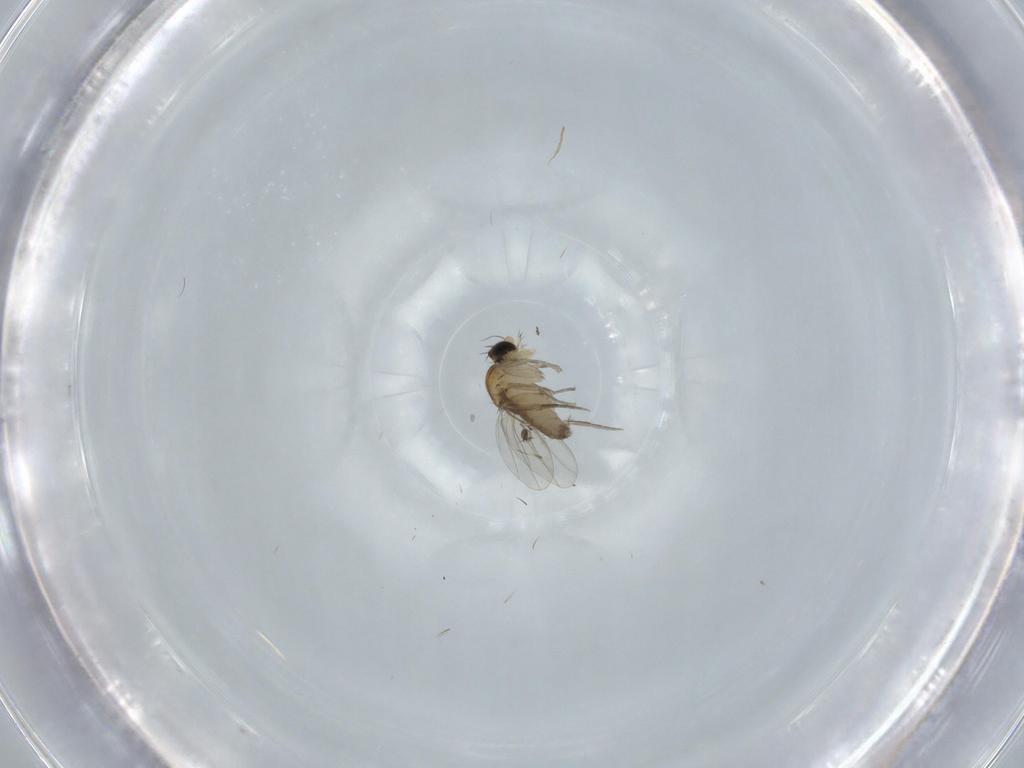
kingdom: Animalia
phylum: Arthropoda
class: Insecta
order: Diptera
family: Phoridae
